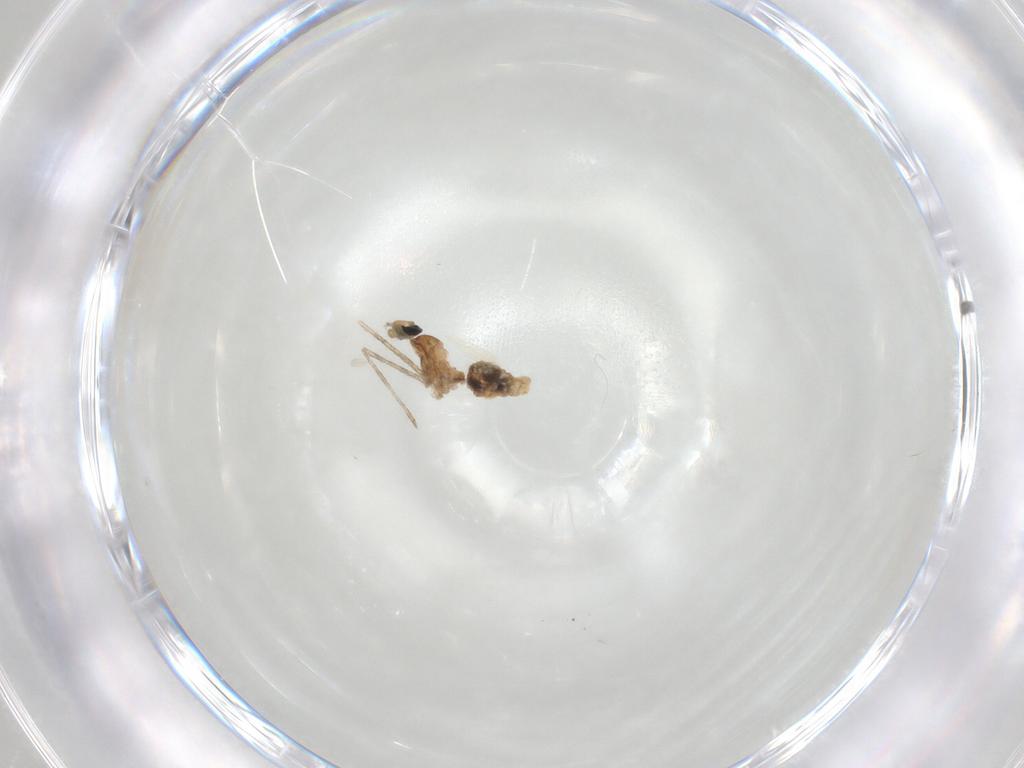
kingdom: Animalia
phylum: Arthropoda
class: Insecta
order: Diptera
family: Cecidomyiidae
